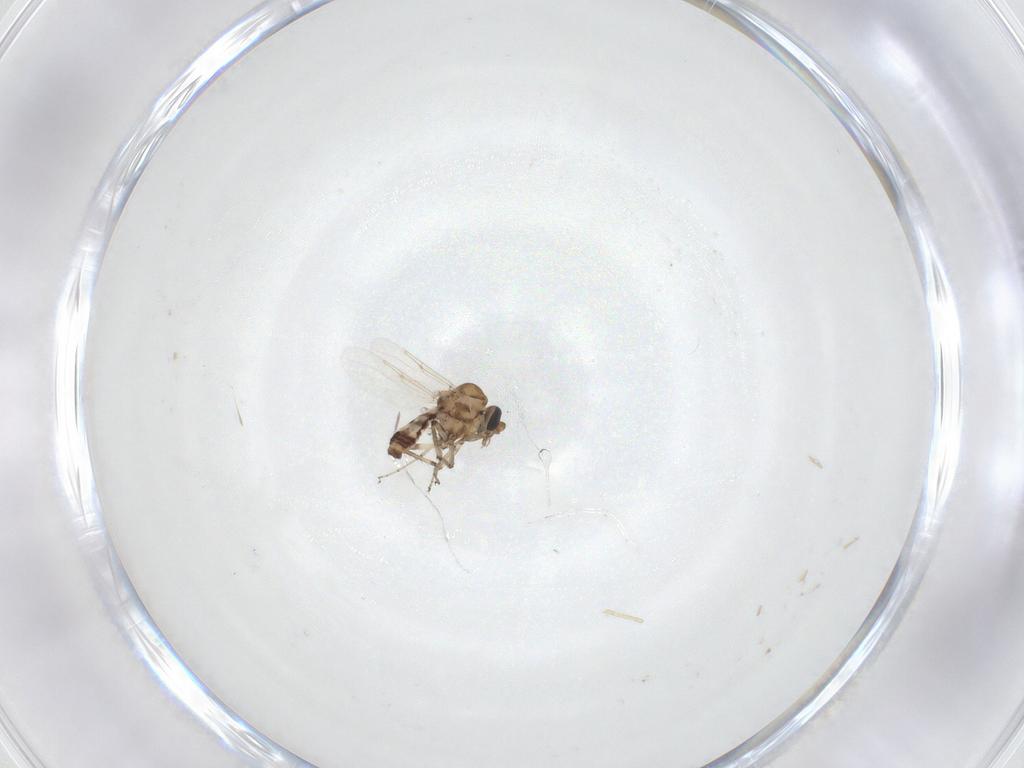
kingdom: Animalia
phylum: Arthropoda
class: Insecta
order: Diptera
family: Ceratopogonidae
